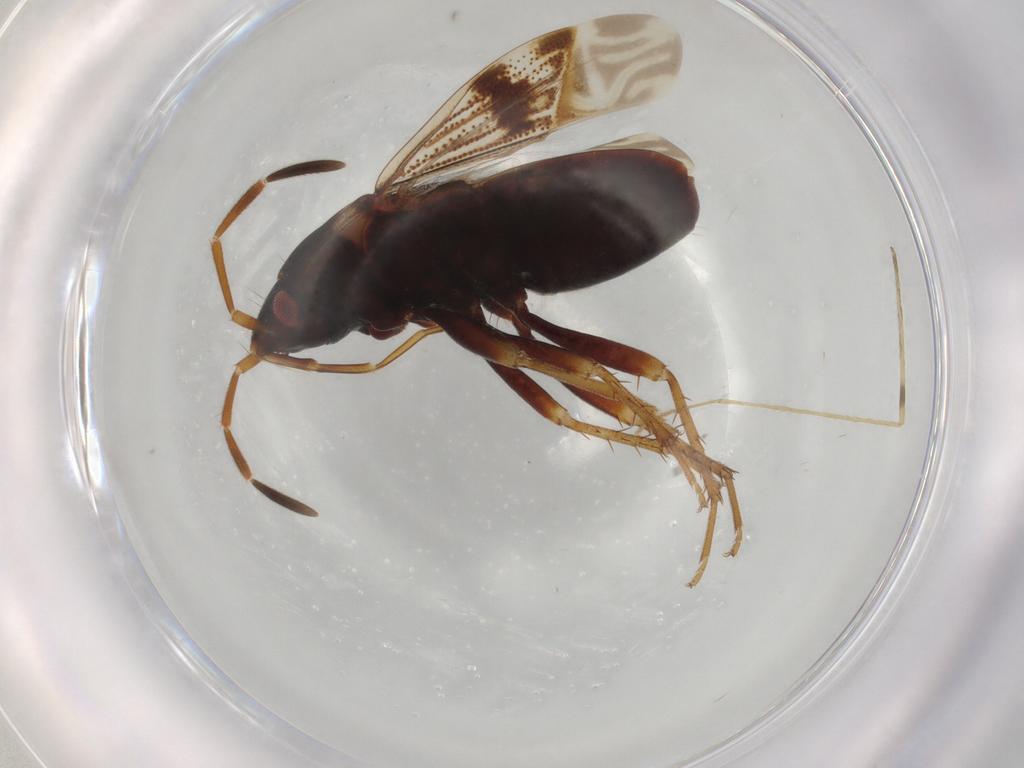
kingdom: Animalia
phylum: Arthropoda
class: Insecta
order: Hemiptera
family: Rhyparochromidae
